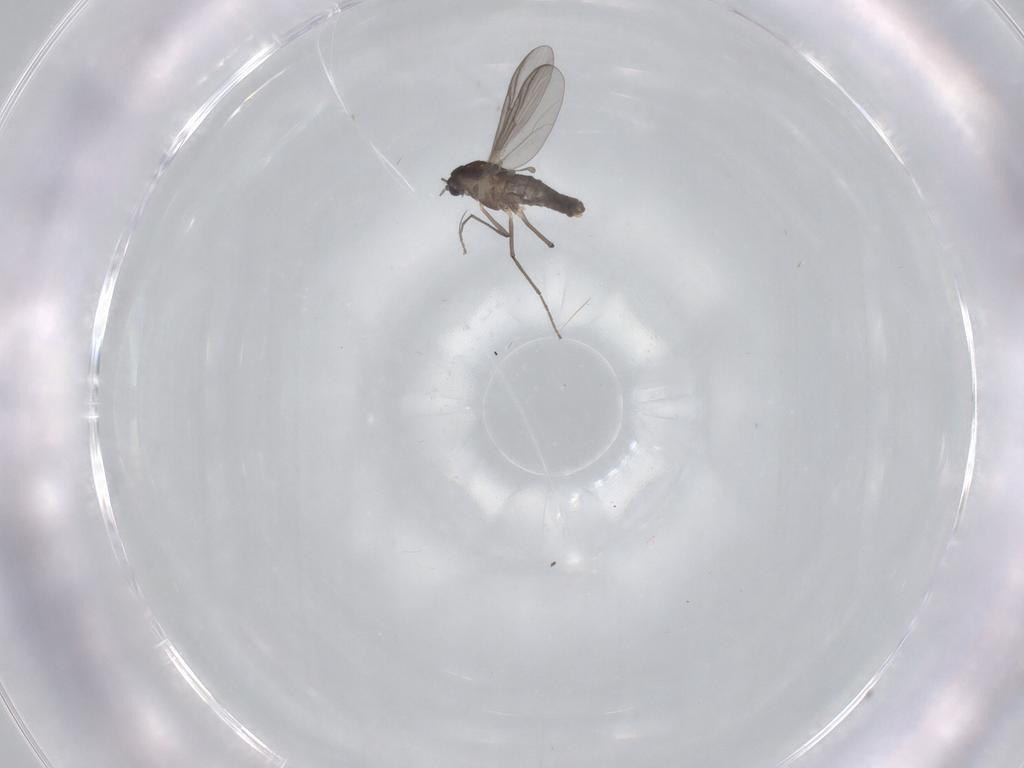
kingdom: Animalia
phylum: Arthropoda
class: Insecta
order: Diptera
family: Chironomidae
